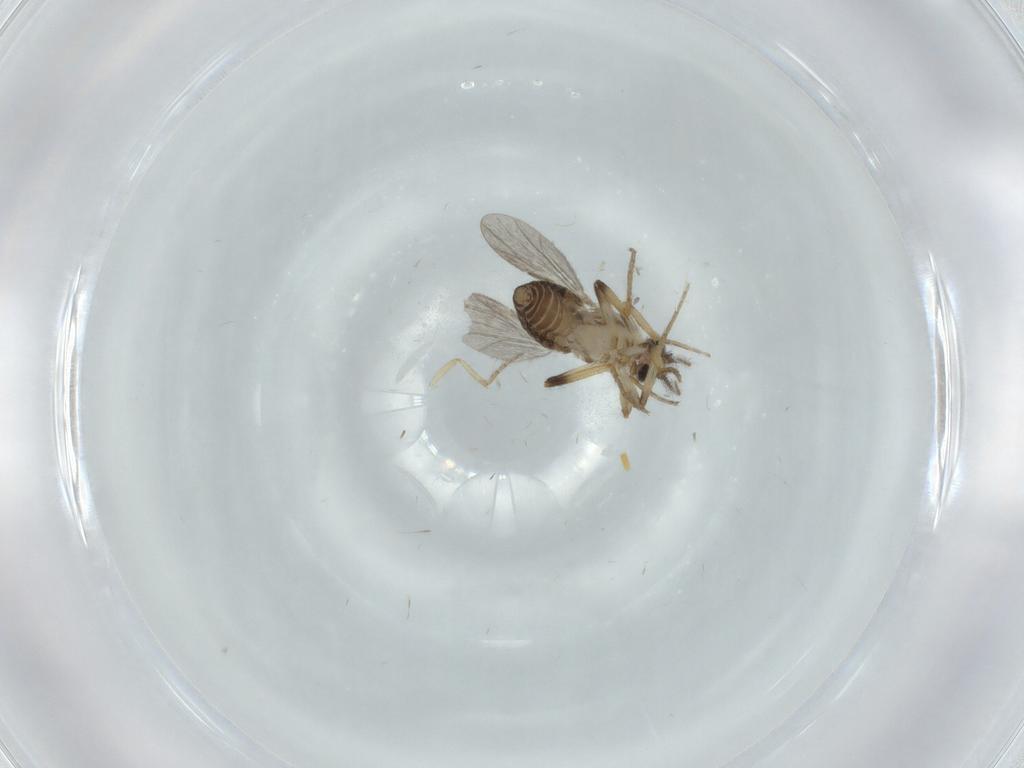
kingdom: Animalia
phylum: Arthropoda
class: Insecta
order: Diptera
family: Ceratopogonidae
